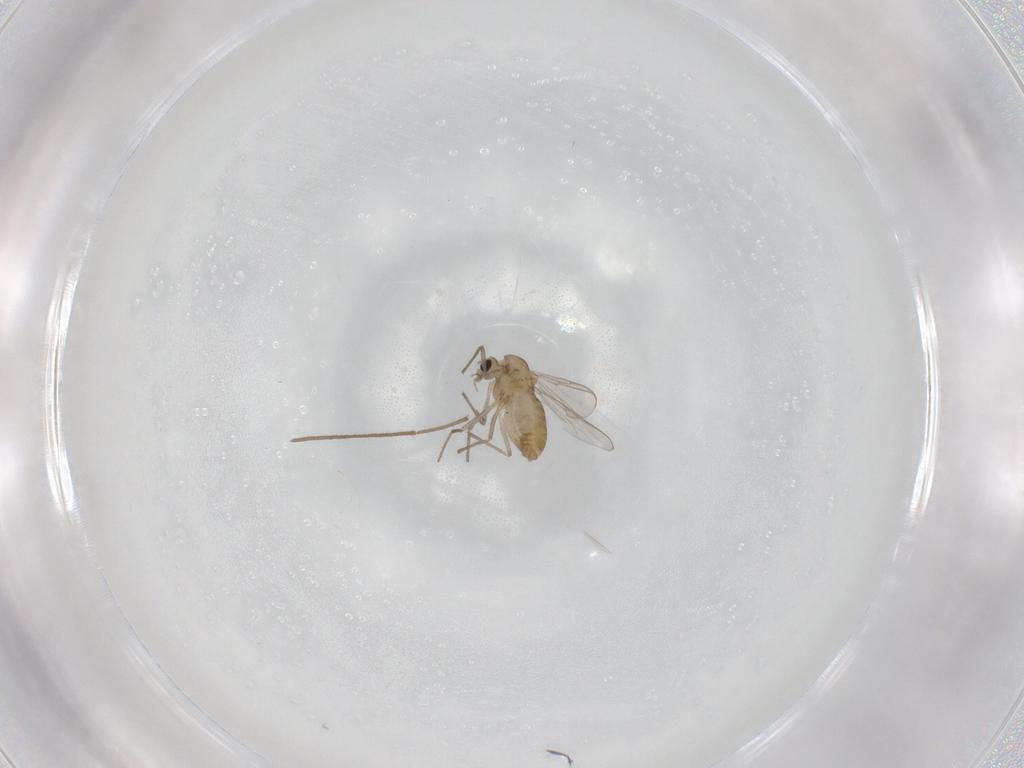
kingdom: Animalia
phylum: Arthropoda
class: Insecta
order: Diptera
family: Chironomidae
